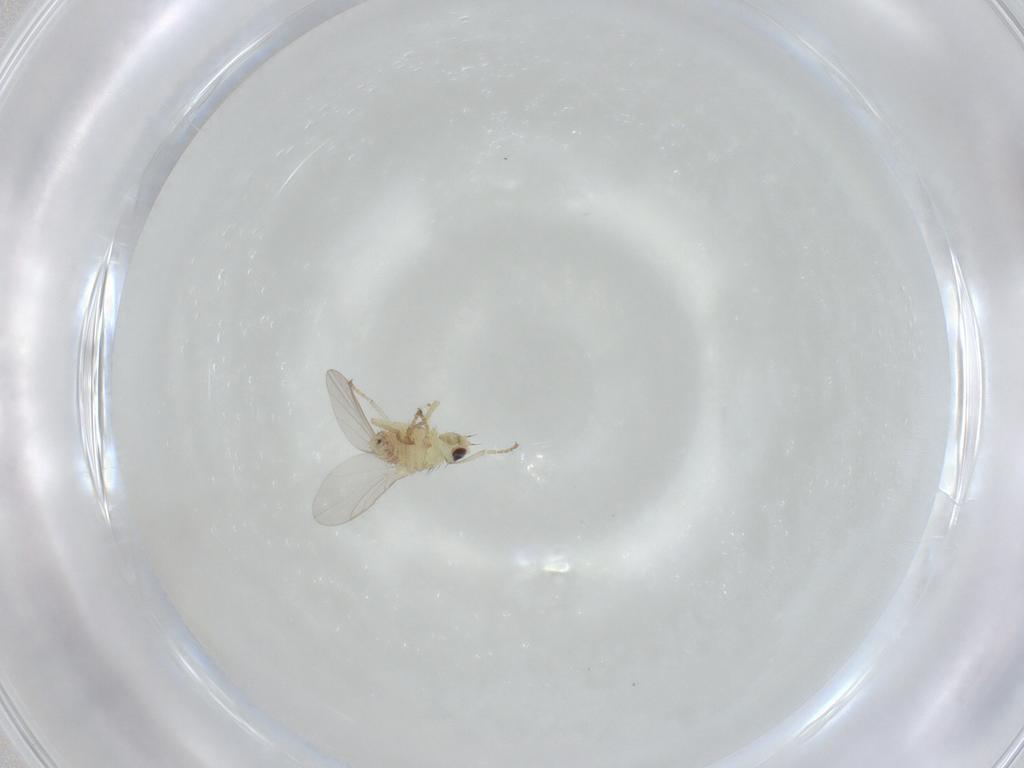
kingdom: Animalia
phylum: Arthropoda
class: Insecta
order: Diptera
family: Agromyzidae
